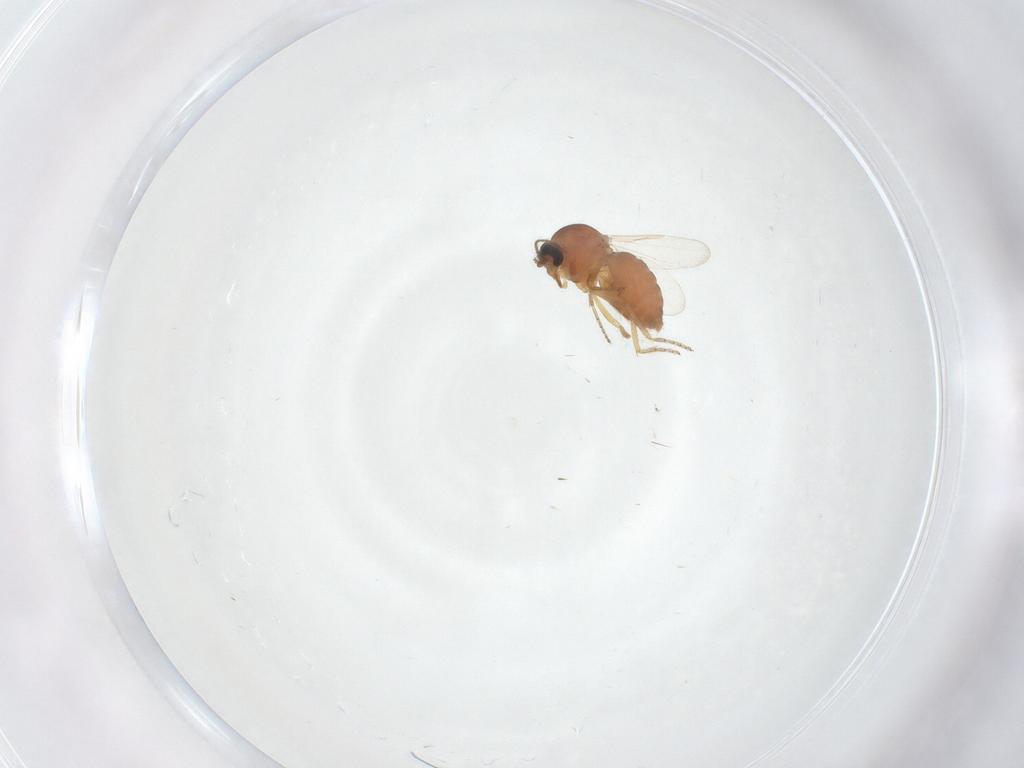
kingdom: Animalia
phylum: Arthropoda
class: Insecta
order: Diptera
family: Ceratopogonidae
